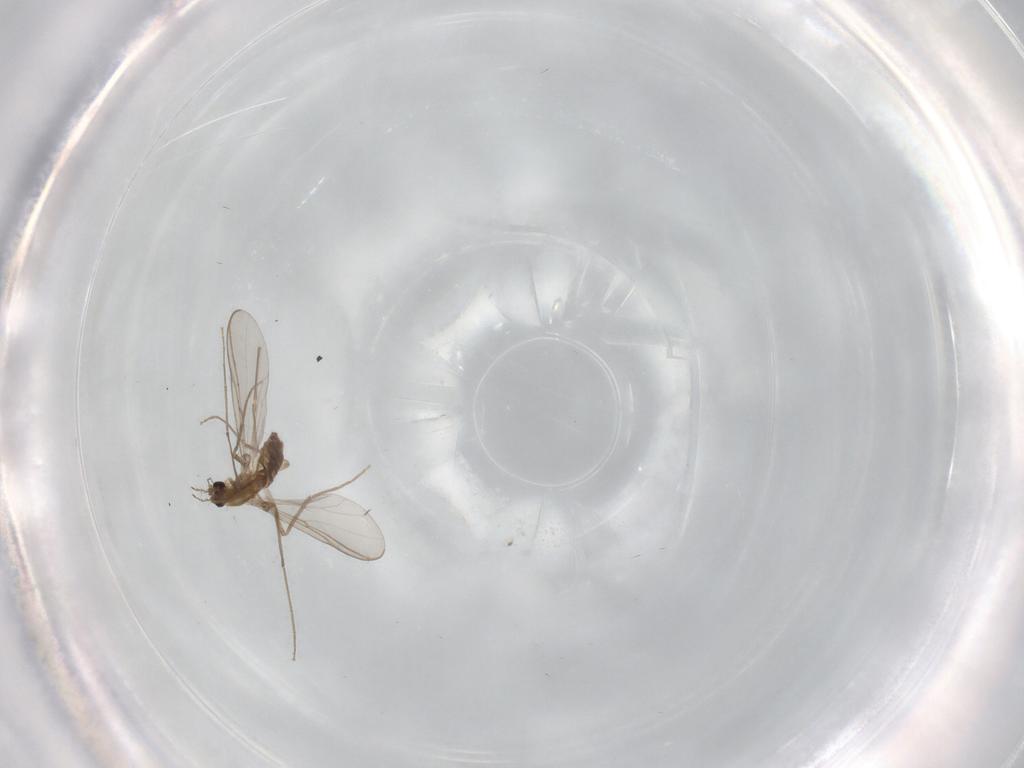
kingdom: Animalia
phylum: Arthropoda
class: Insecta
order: Diptera
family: Chironomidae
